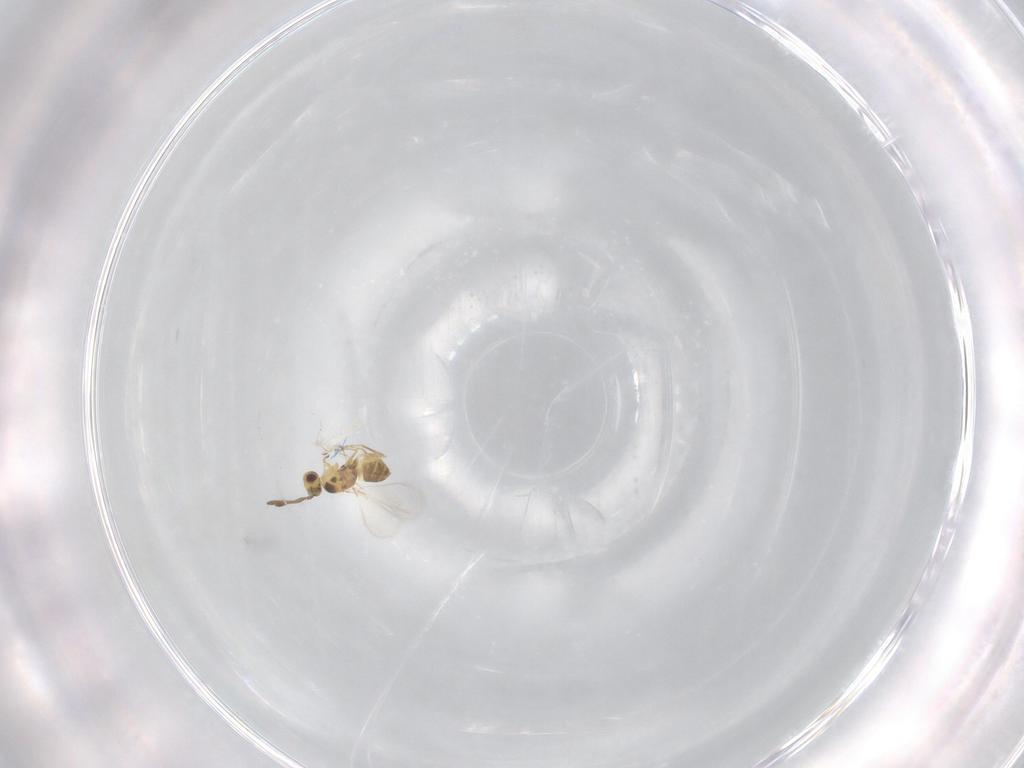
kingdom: Animalia
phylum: Arthropoda
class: Insecta
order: Hymenoptera
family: Mymaridae
